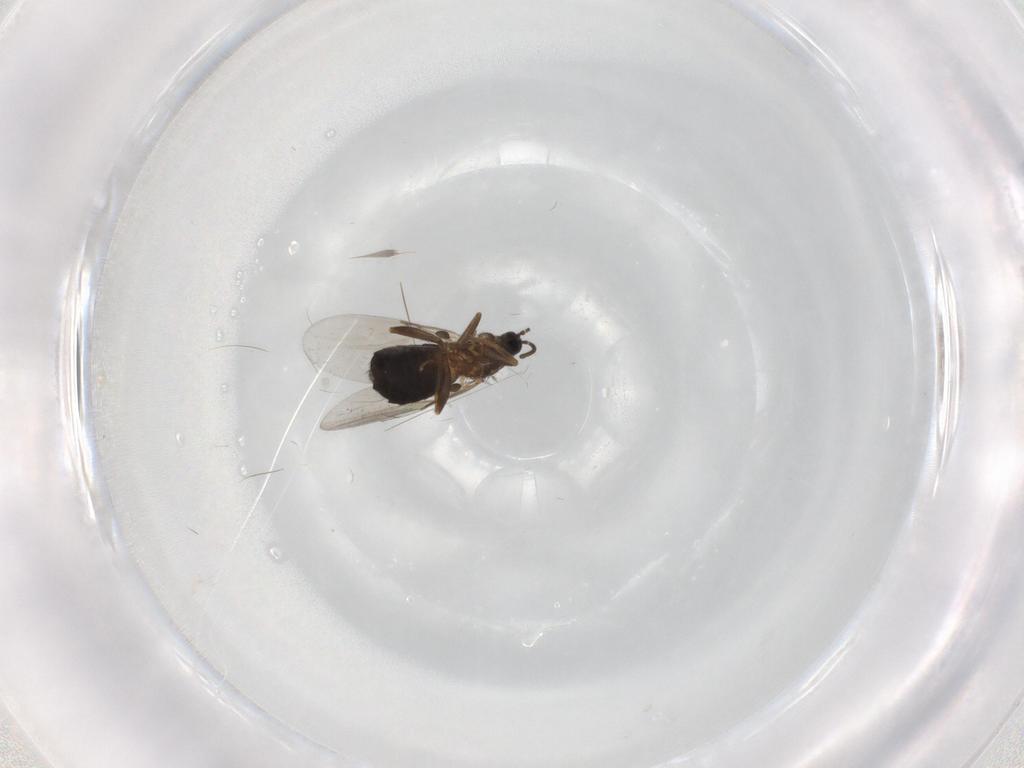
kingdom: Animalia
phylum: Arthropoda
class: Insecta
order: Diptera
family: Scatopsidae
